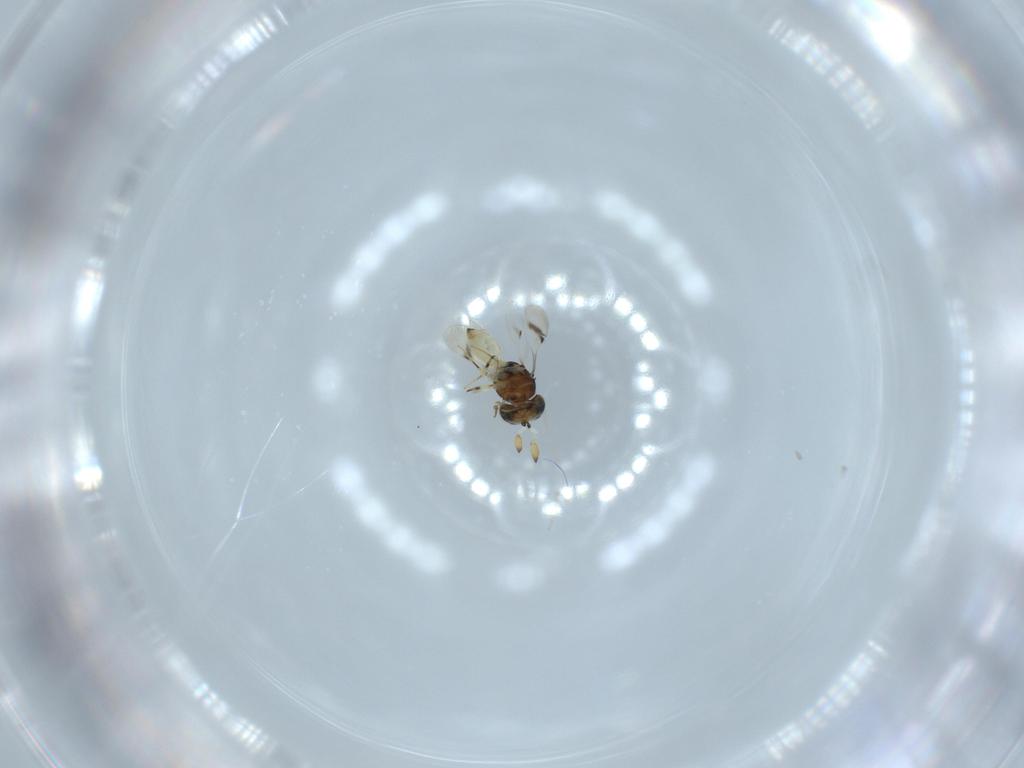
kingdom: Animalia
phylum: Arthropoda
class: Insecta
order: Hymenoptera
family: Scelionidae
